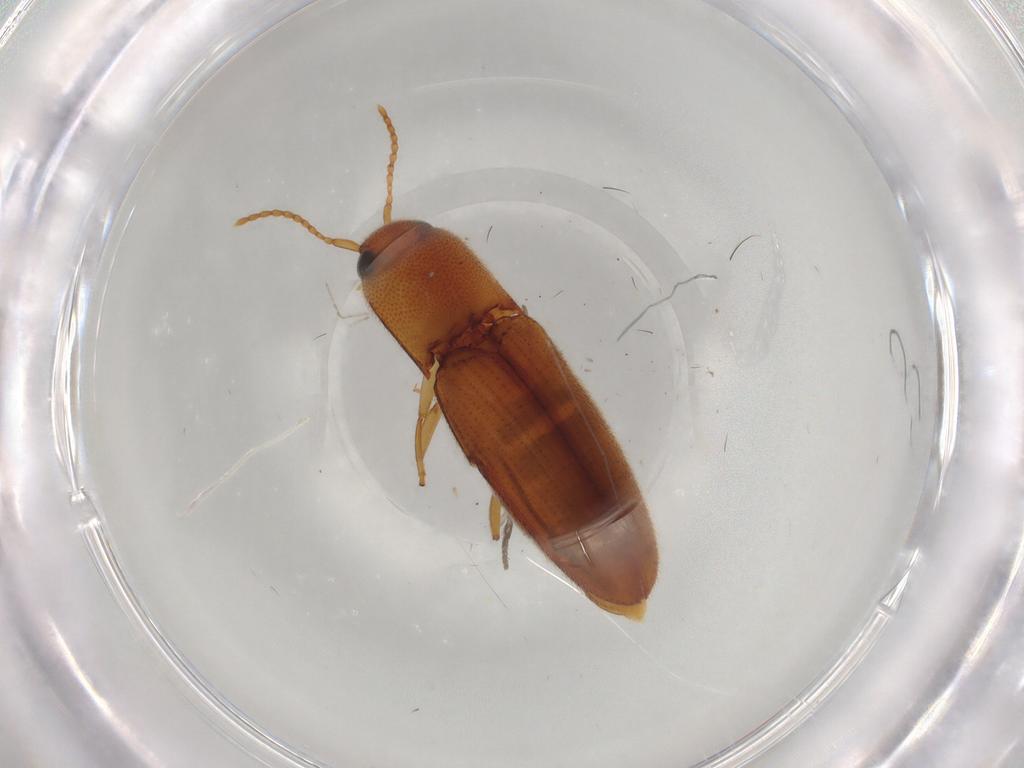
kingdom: Animalia
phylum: Arthropoda
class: Insecta
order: Coleoptera
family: Elateridae
